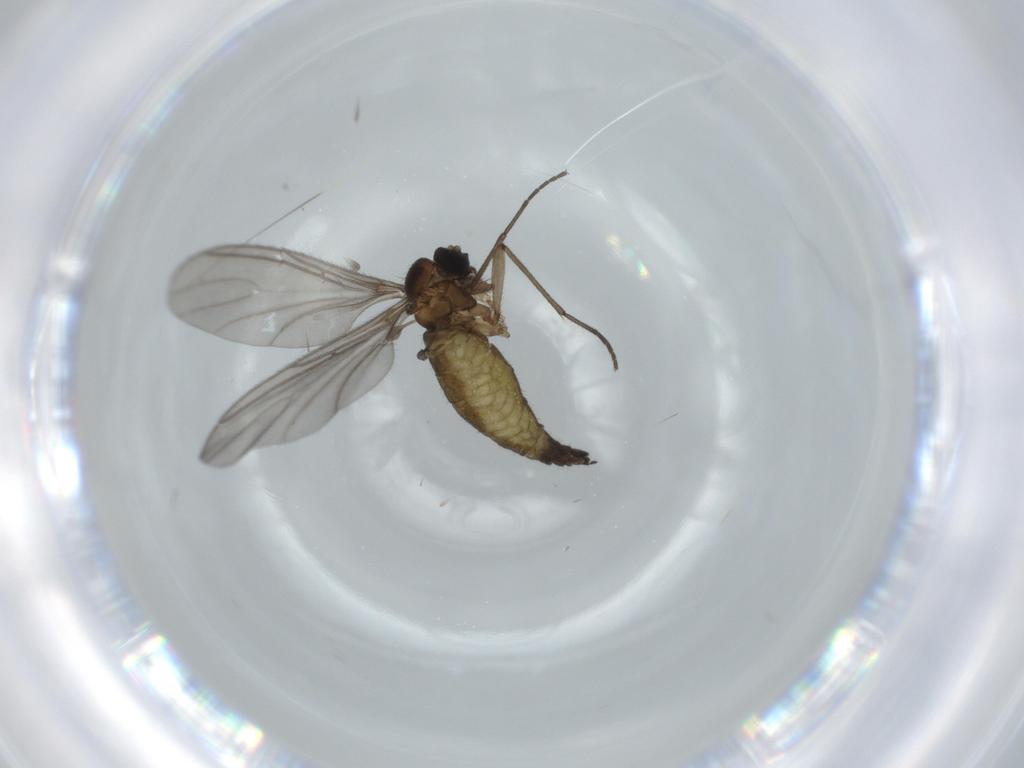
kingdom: Animalia
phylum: Arthropoda
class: Insecta
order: Diptera
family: Sciaridae
